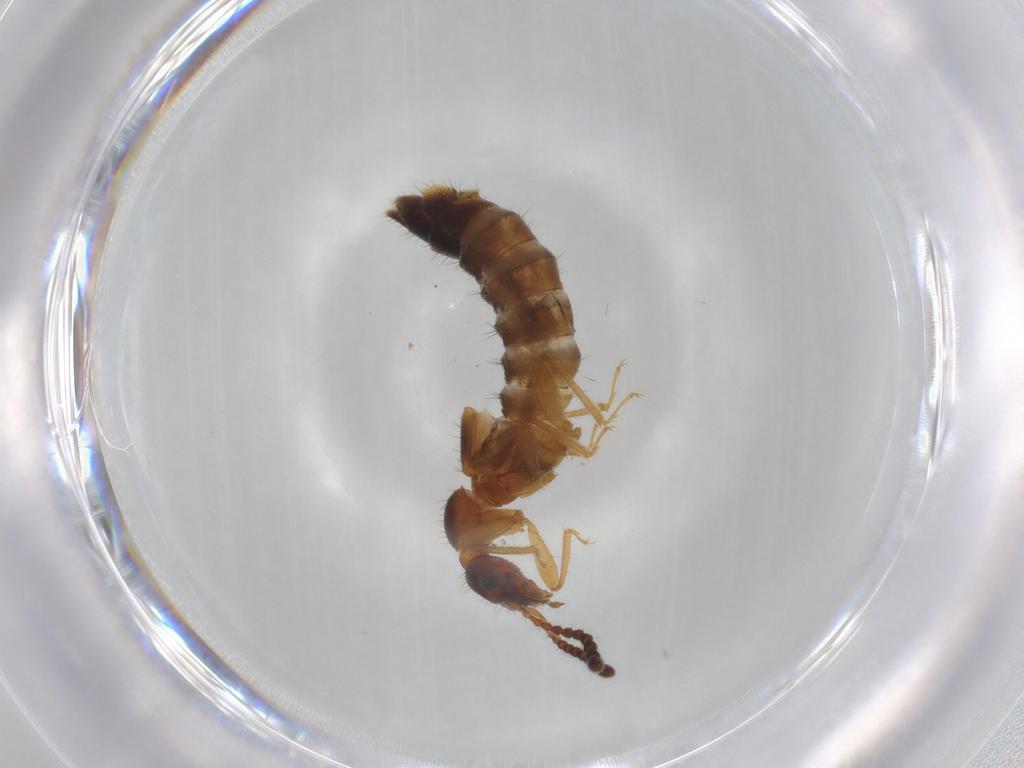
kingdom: Animalia
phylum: Arthropoda
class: Insecta
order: Coleoptera
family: Staphylinidae
